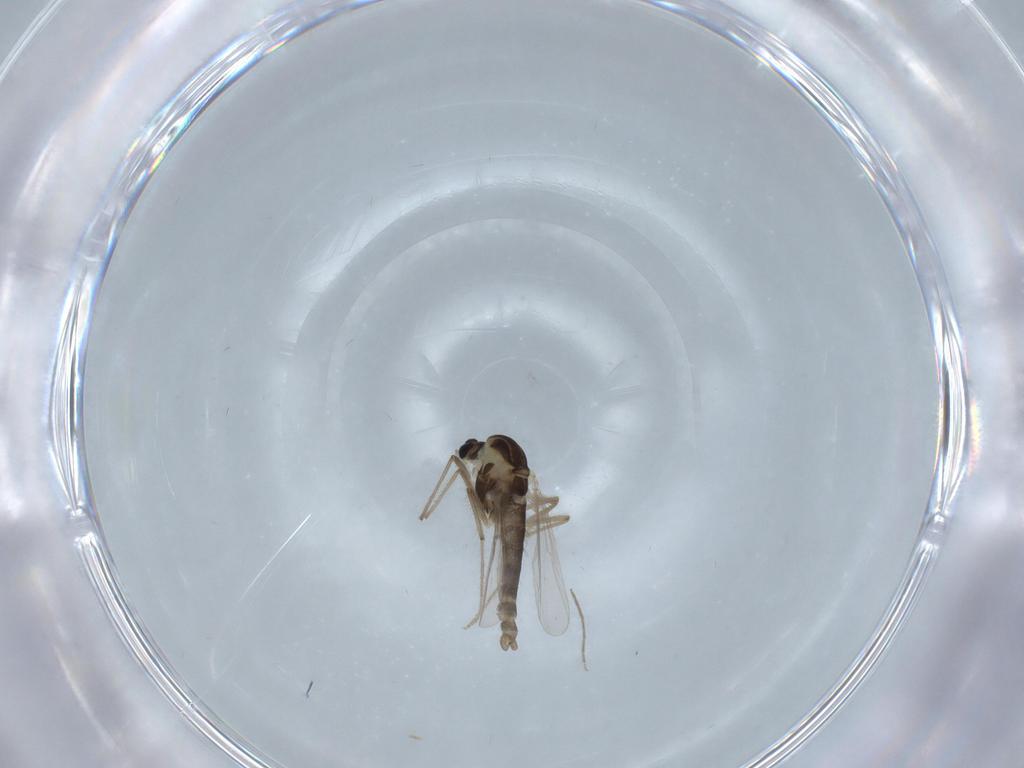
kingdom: Animalia
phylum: Arthropoda
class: Insecta
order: Diptera
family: Chironomidae
